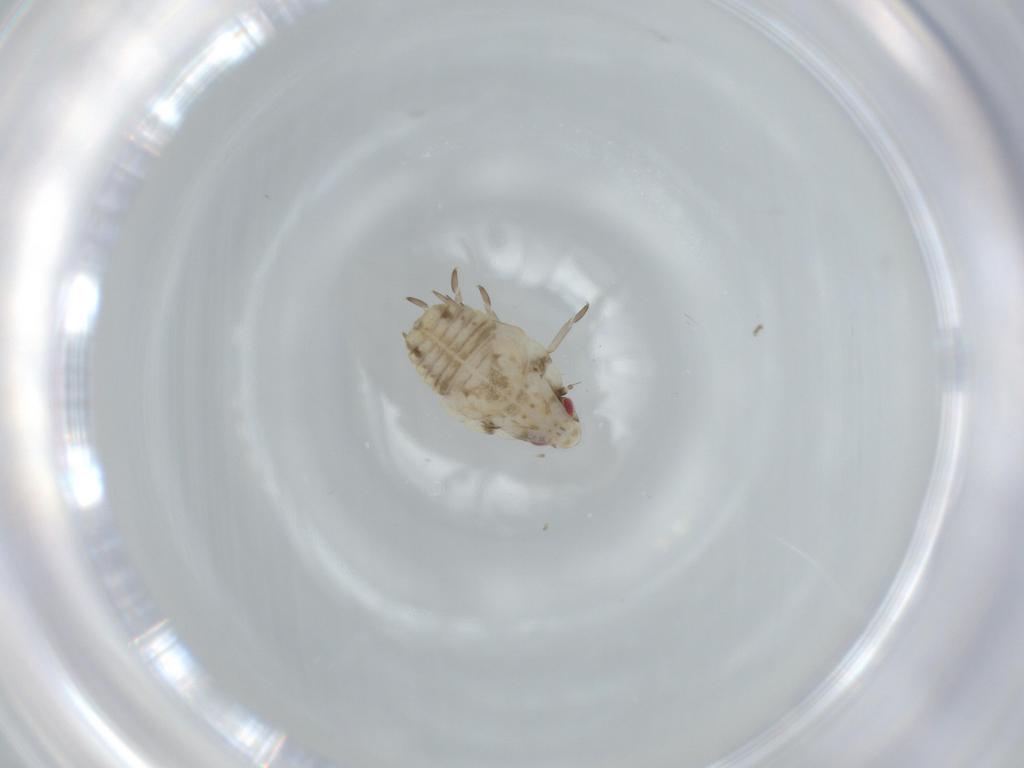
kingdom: Animalia
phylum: Arthropoda
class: Insecta
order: Hemiptera
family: Flatidae
